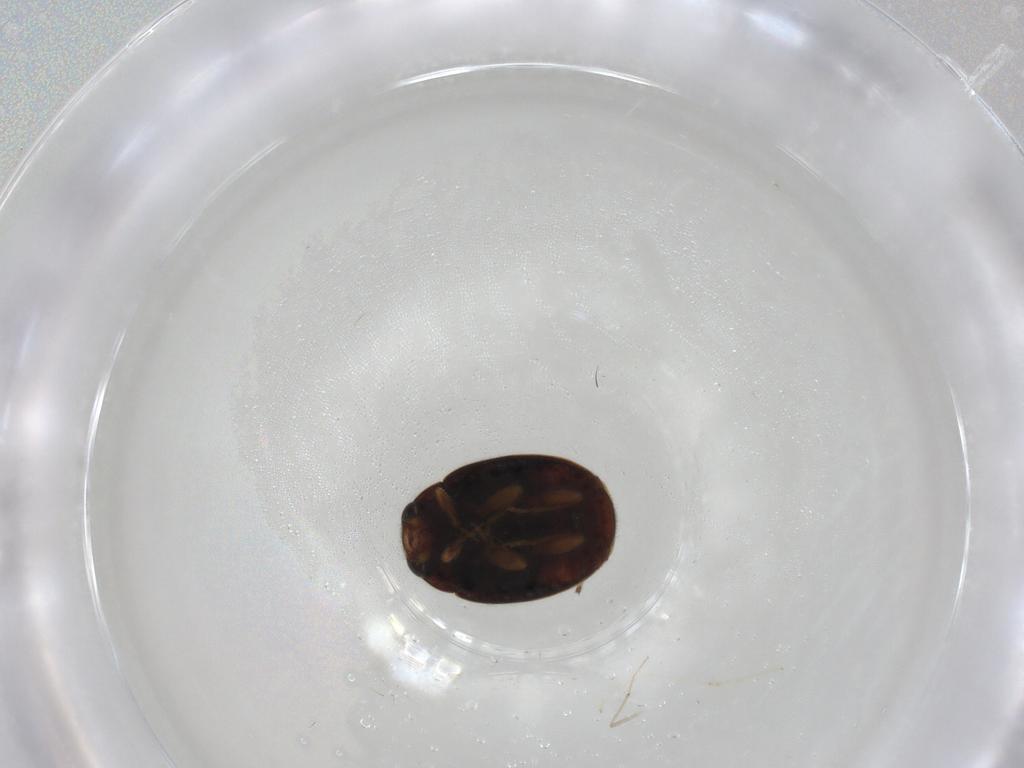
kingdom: Animalia
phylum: Arthropoda
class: Insecta
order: Coleoptera
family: Coccinellidae
